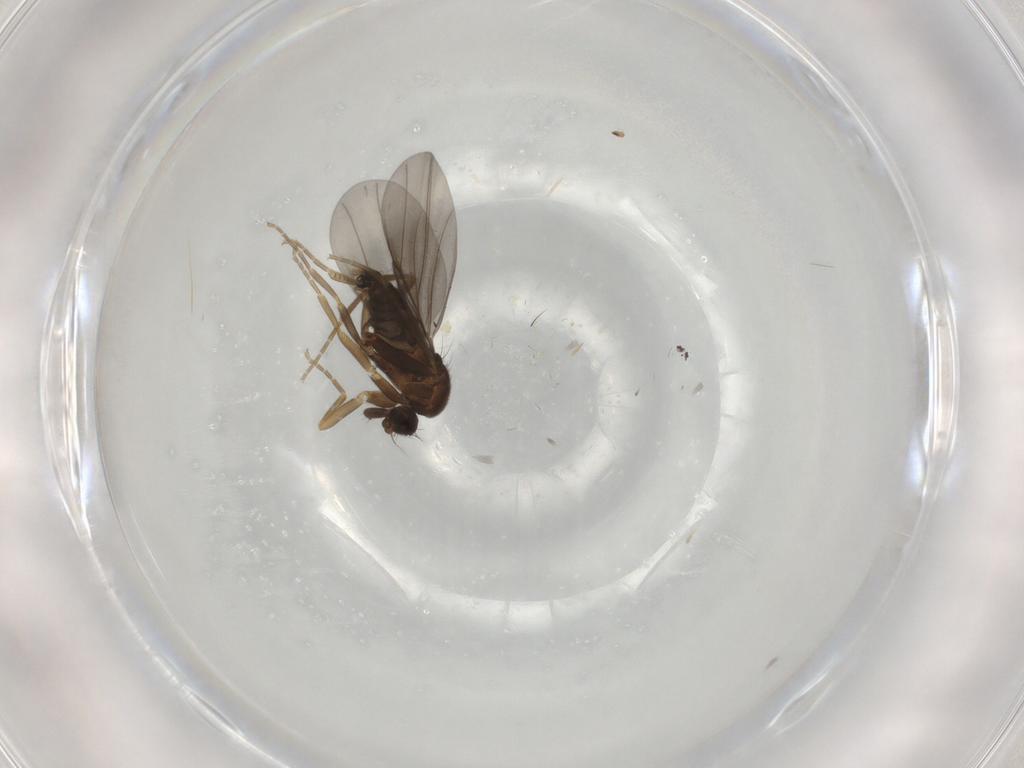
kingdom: Animalia
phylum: Arthropoda
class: Insecta
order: Diptera
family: Chironomidae
